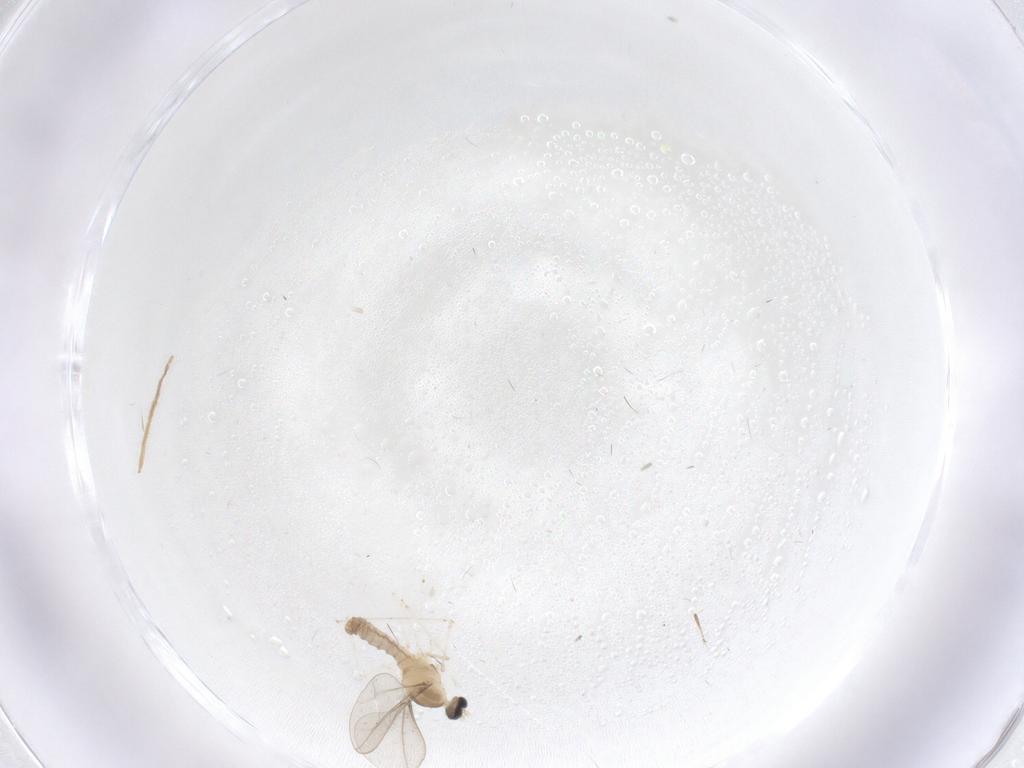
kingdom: Animalia
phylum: Arthropoda
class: Insecta
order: Diptera
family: Cecidomyiidae
